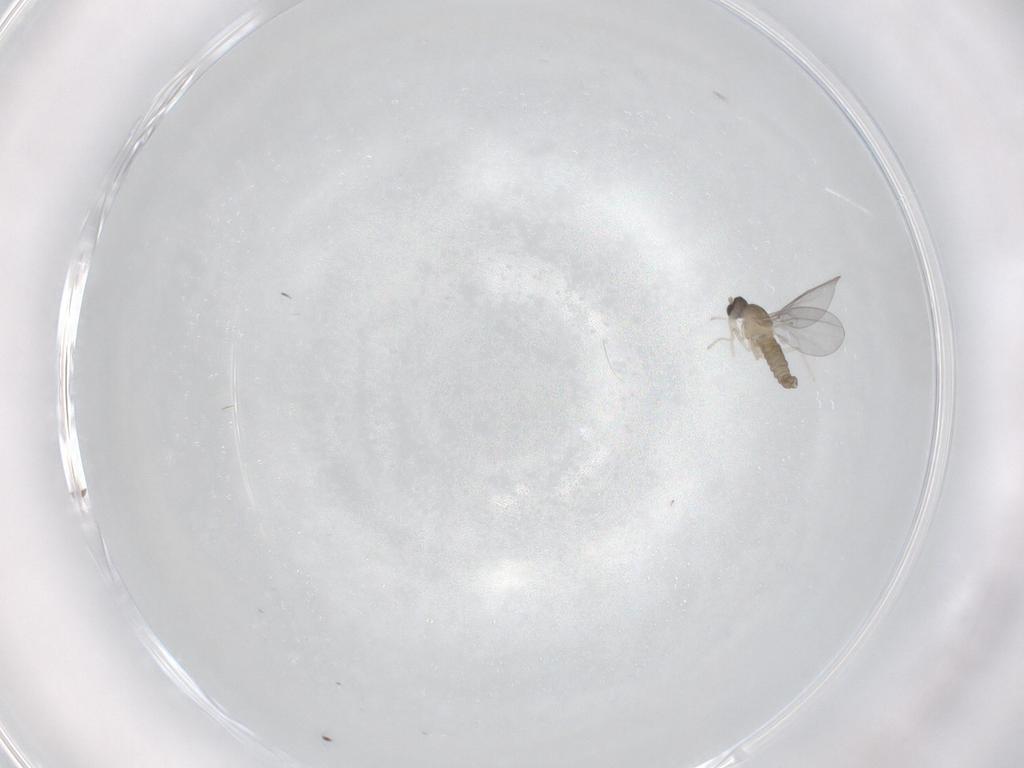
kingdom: Animalia
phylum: Arthropoda
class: Insecta
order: Diptera
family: Cecidomyiidae
